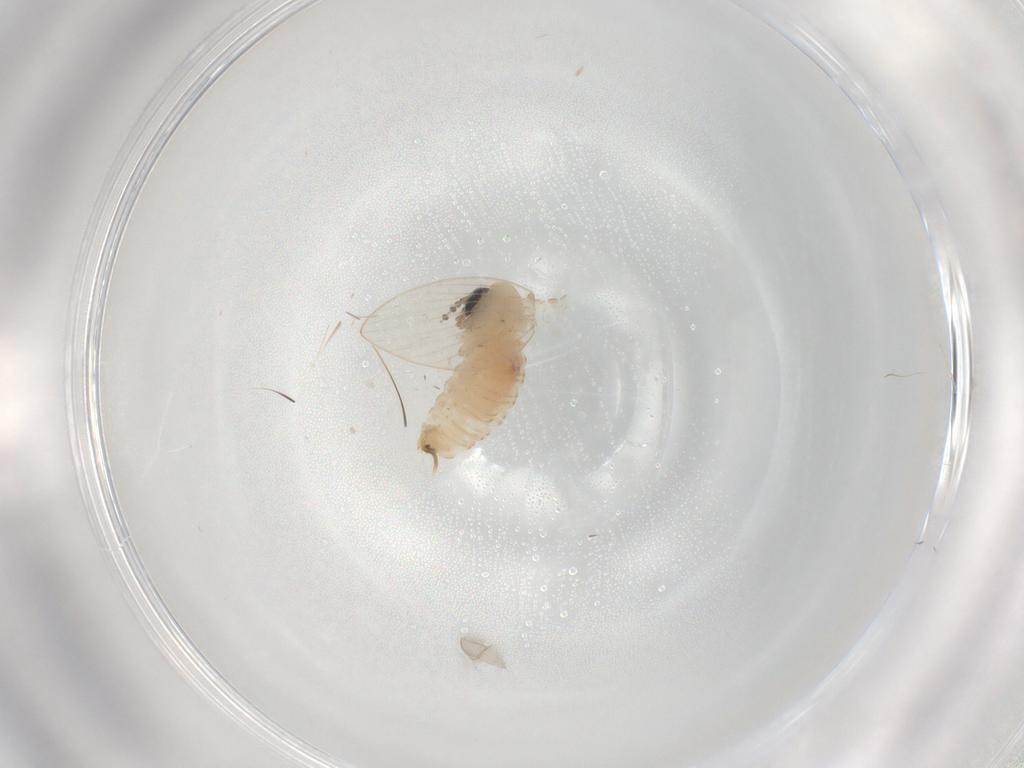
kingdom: Animalia
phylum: Arthropoda
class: Insecta
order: Diptera
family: Psychodidae
